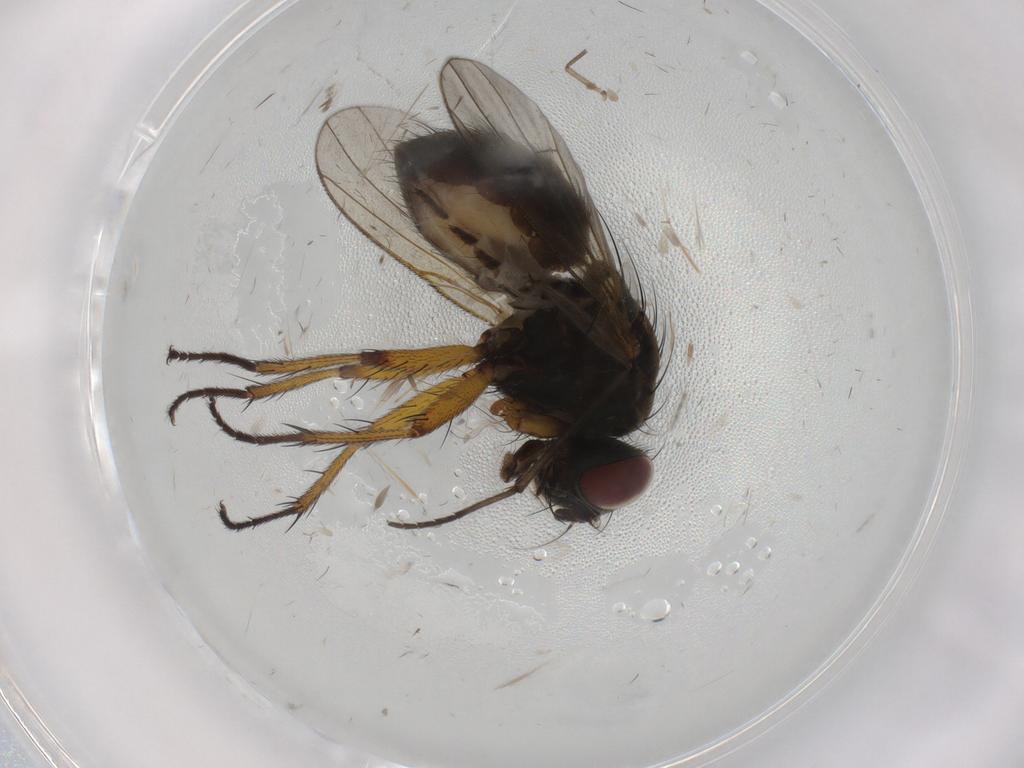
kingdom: Animalia
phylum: Arthropoda
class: Insecta
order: Diptera
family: Muscidae
